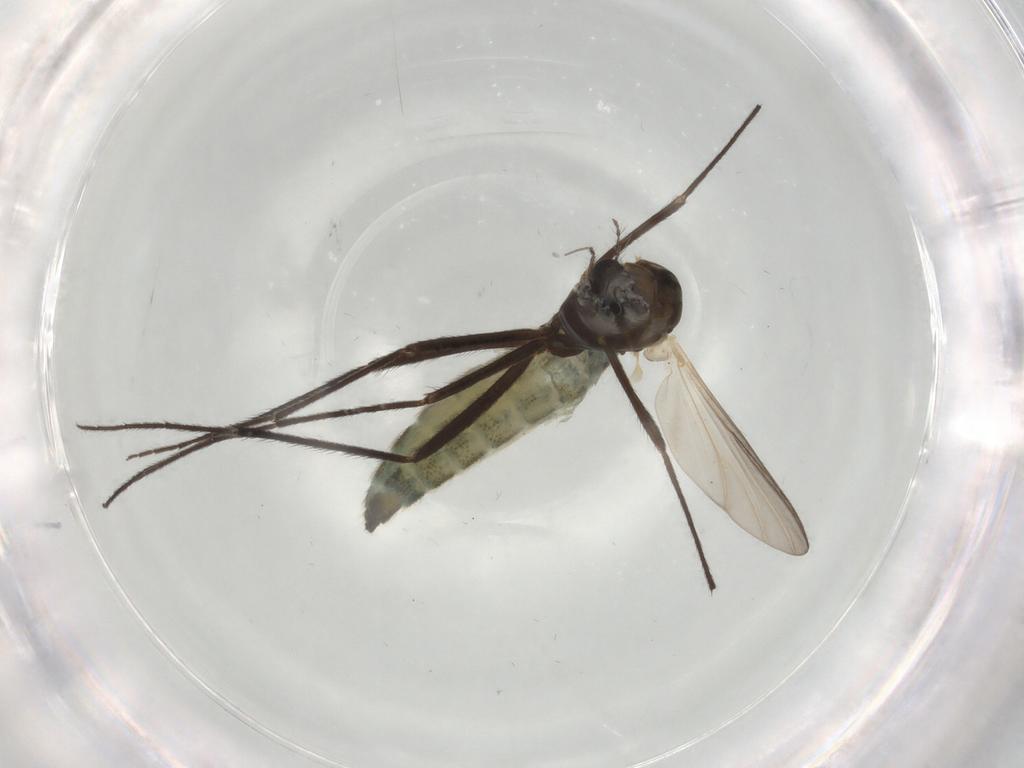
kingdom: Animalia
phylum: Arthropoda
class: Insecta
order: Diptera
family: Chironomidae
